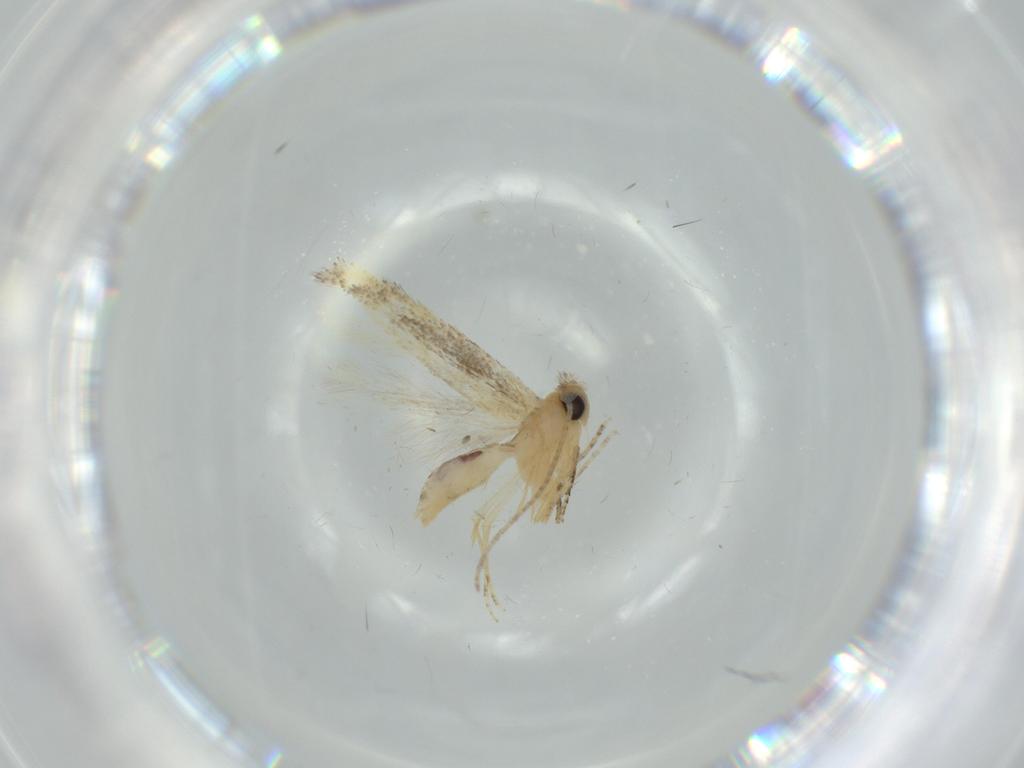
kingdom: Animalia
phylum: Arthropoda
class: Insecta
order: Lepidoptera
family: Bucculatricidae
